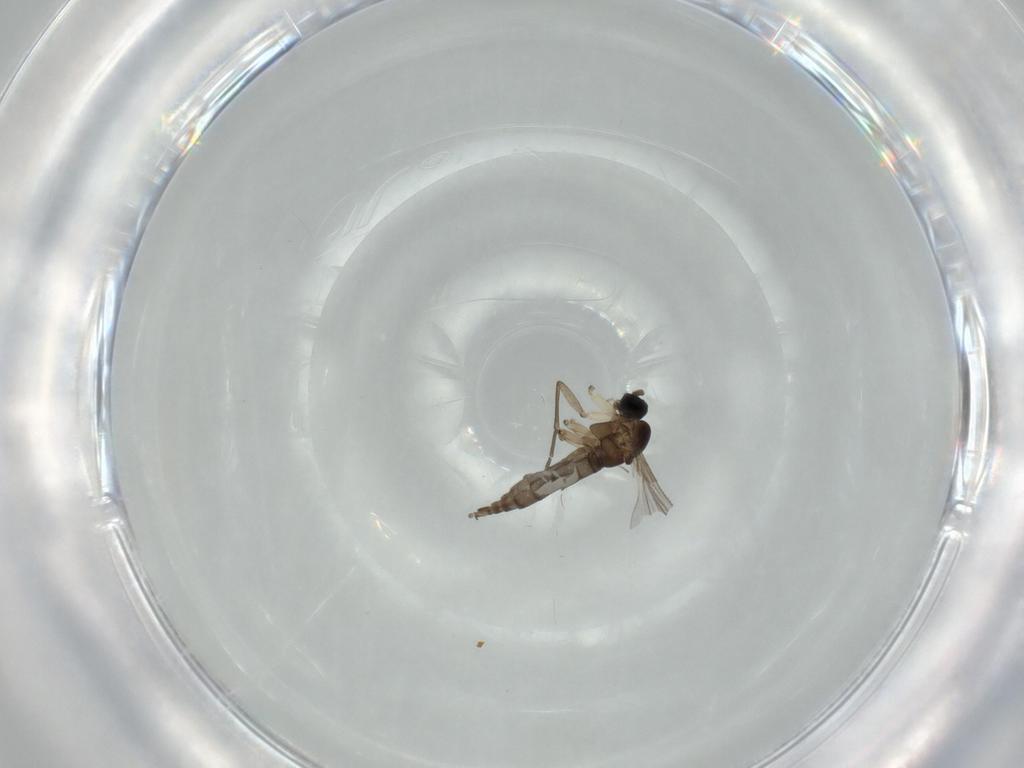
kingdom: Animalia
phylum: Arthropoda
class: Insecta
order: Diptera
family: Sciaridae
